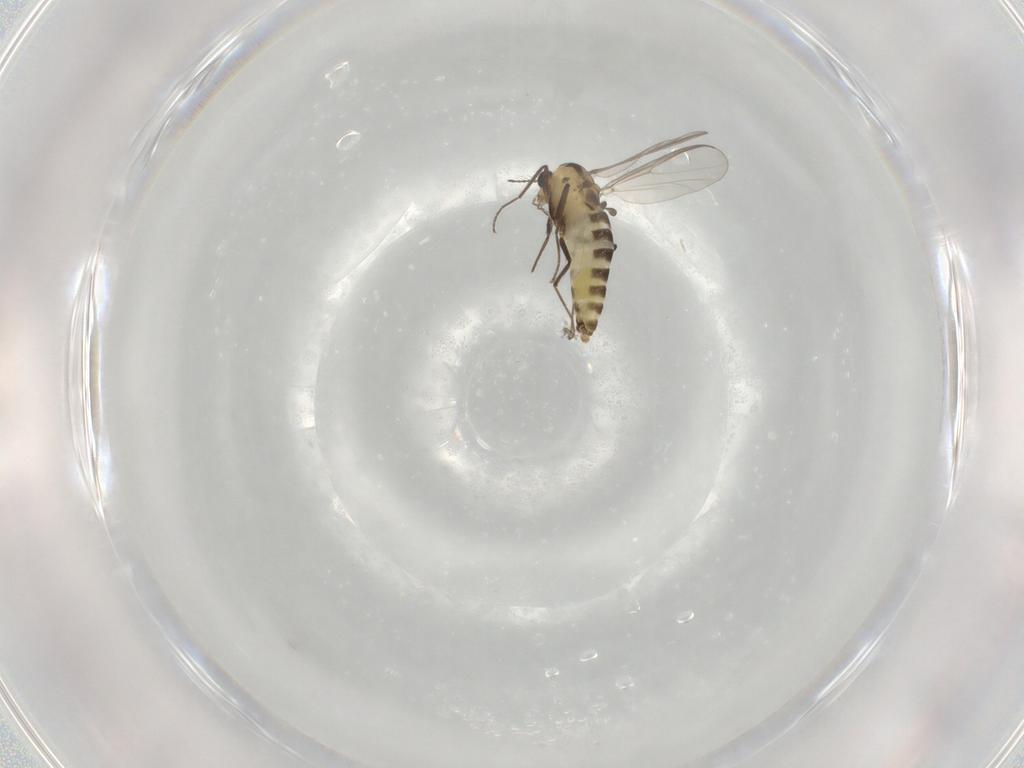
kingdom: Animalia
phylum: Arthropoda
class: Insecta
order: Diptera
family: Chironomidae
